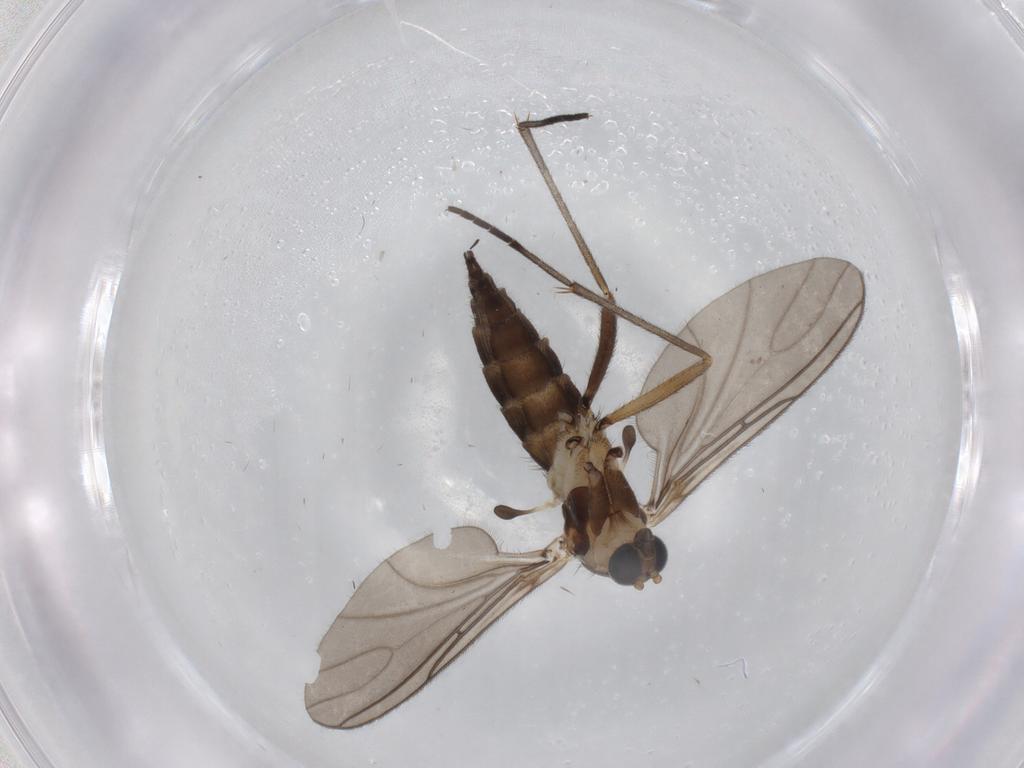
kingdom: Animalia
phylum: Arthropoda
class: Insecta
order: Diptera
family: Sciaridae
